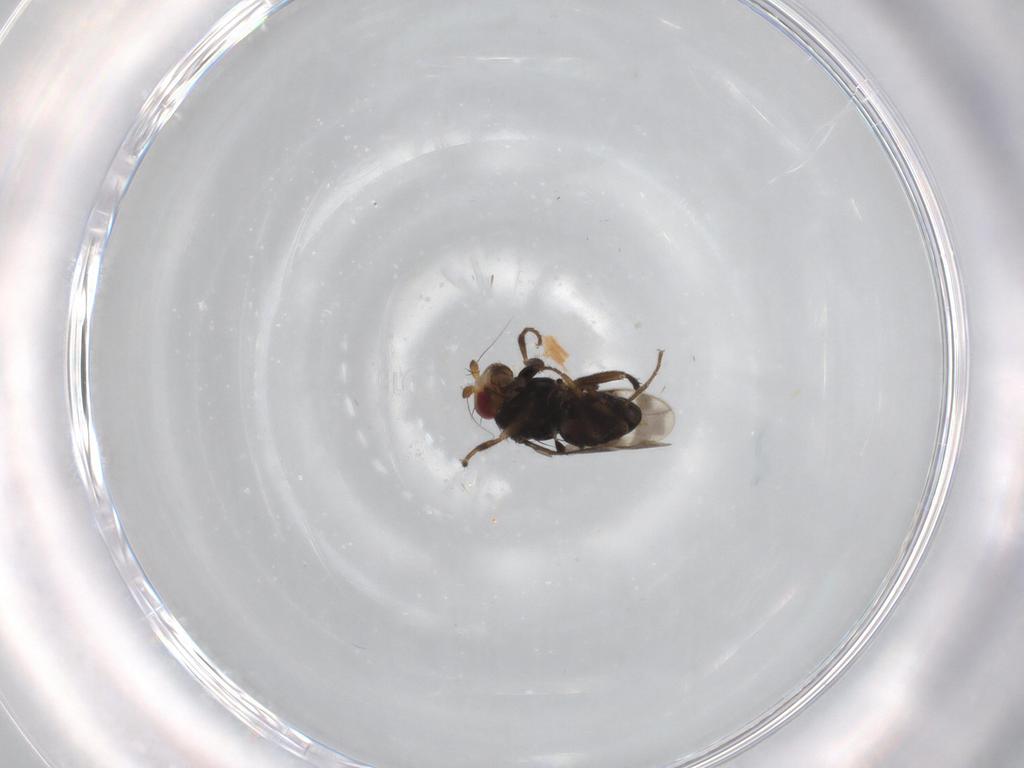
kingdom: Animalia
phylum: Arthropoda
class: Insecta
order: Diptera
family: Sphaeroceridae
